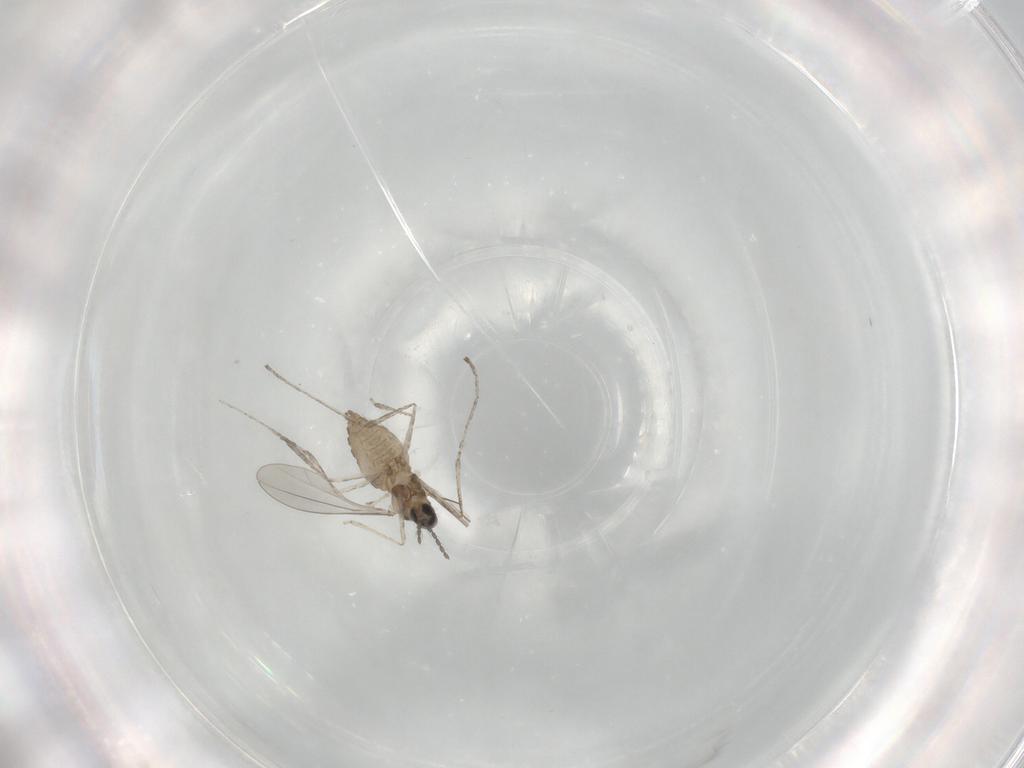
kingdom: Animalia
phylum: Arthropoda
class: Insecta
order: Diptera
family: Cecidomyiidae
